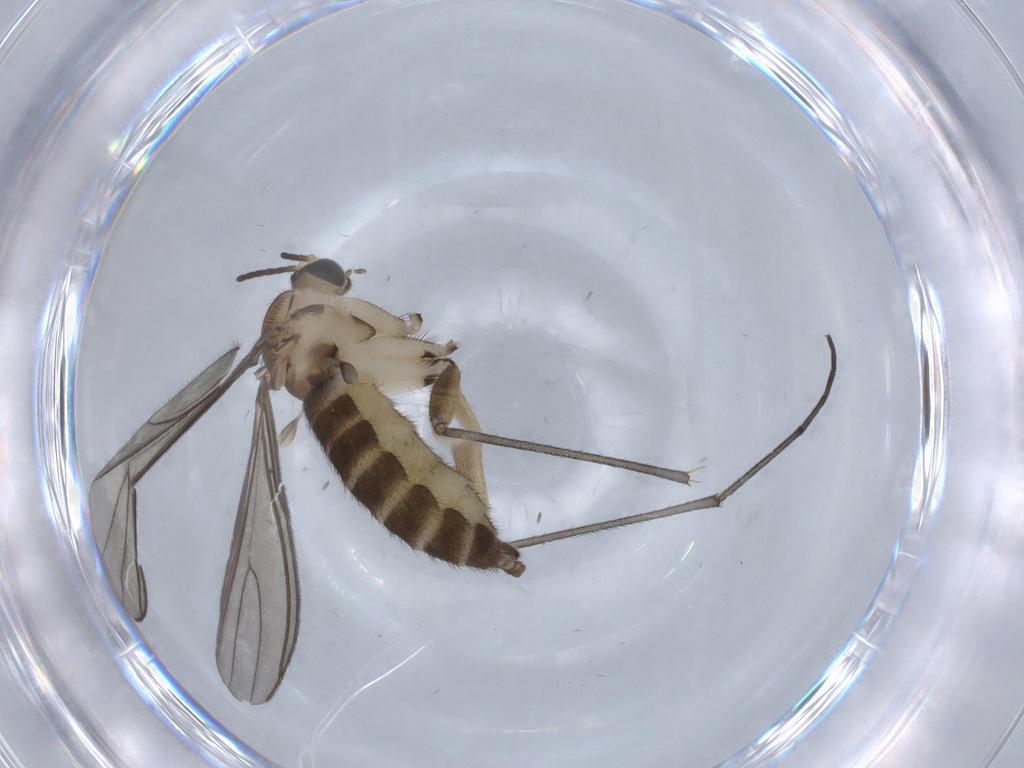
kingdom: Animalia
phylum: Arthropoda
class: Insecta
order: Diptera
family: Sciaridae
